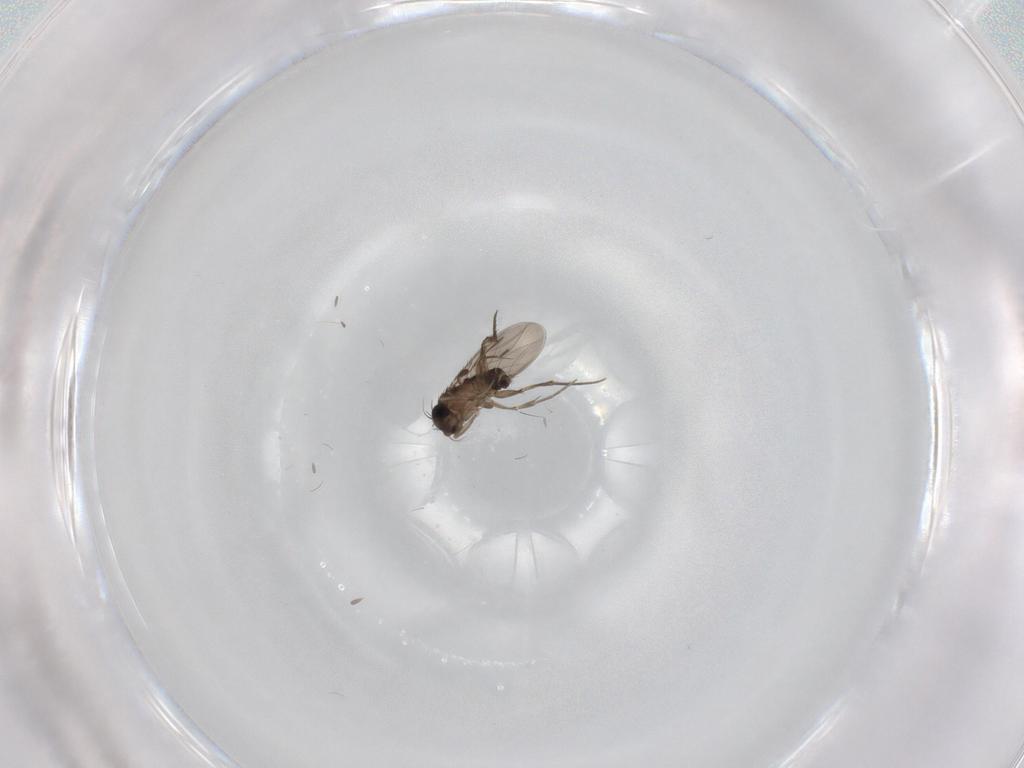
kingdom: Animalia
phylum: Arthropoda
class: Insecta
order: Diptera
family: Phoridae
